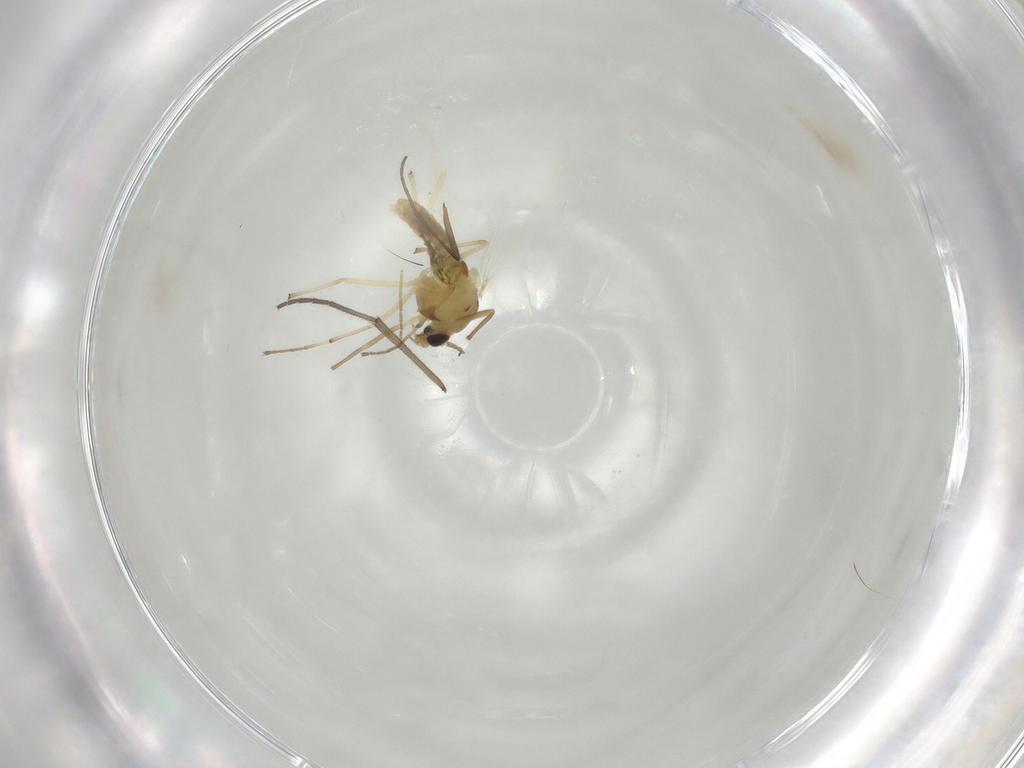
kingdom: Animalia
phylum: Arthropoda
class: Insecta
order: Diptera
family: Chironomidae
